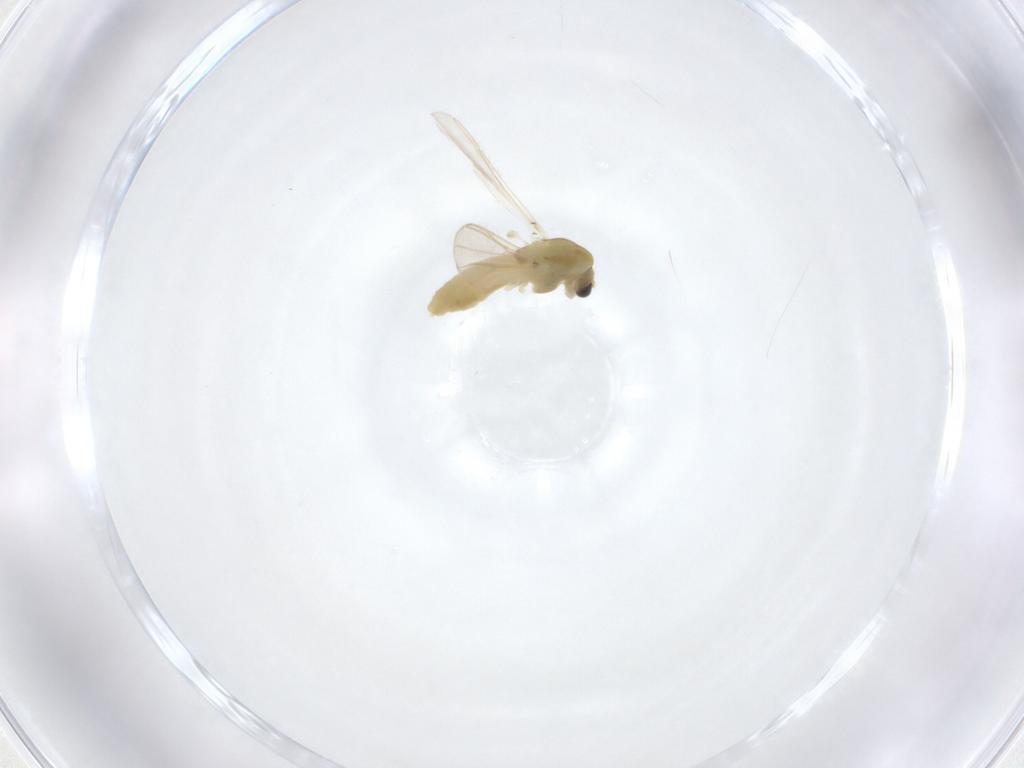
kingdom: Animalia
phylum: Arthropoda
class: Insecta
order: Diptera
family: Cecidomyiidae
